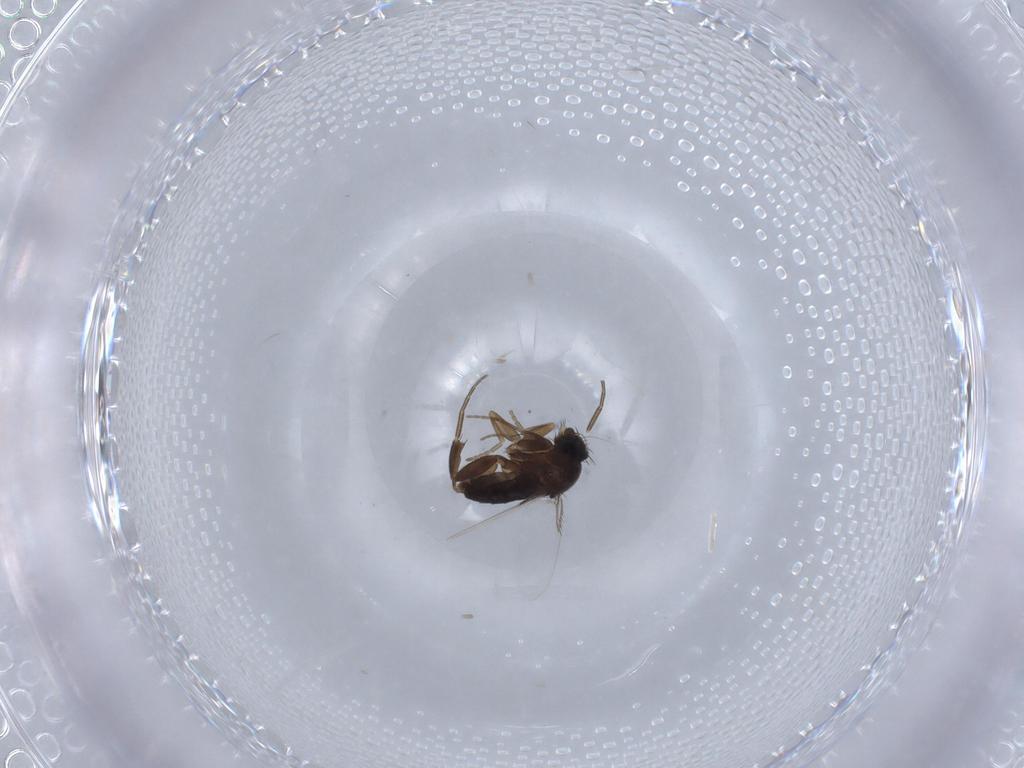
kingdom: Animalia
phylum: Arthropoda
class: Insecta
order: Diptera
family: Phoridae
